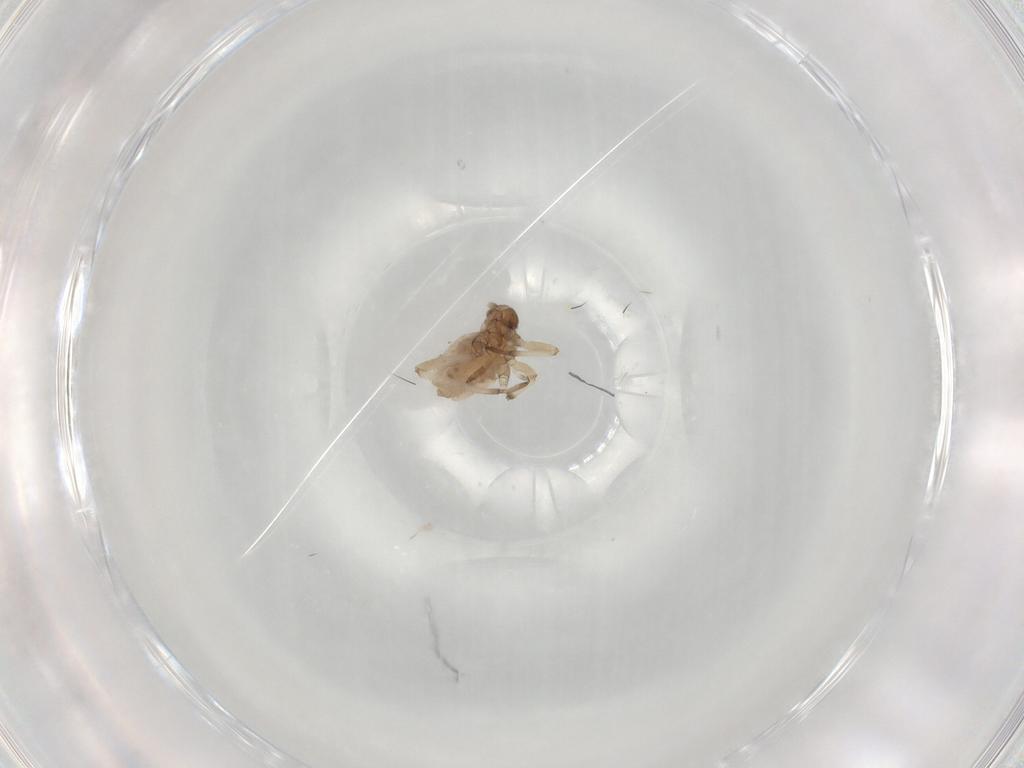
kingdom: Animalia
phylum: Arthropoda
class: Insecta
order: Hemiptera
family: Aphididae
